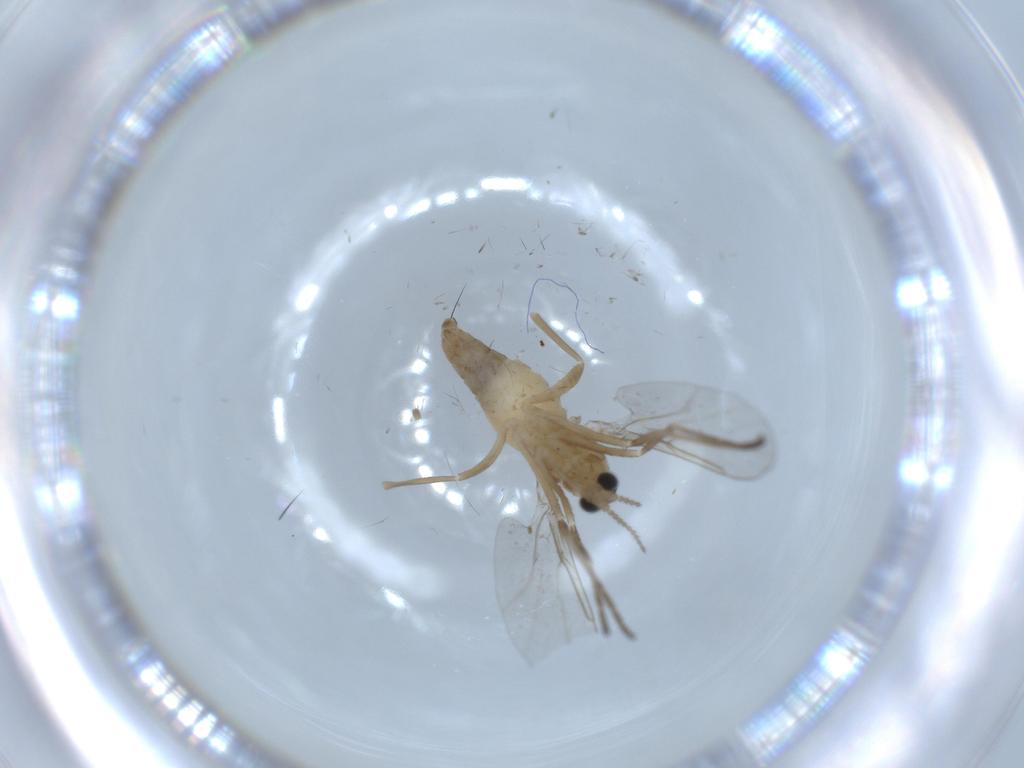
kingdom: Animalia
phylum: Arthropoda
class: Insecta
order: Diptera
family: Cecidomyiidae
